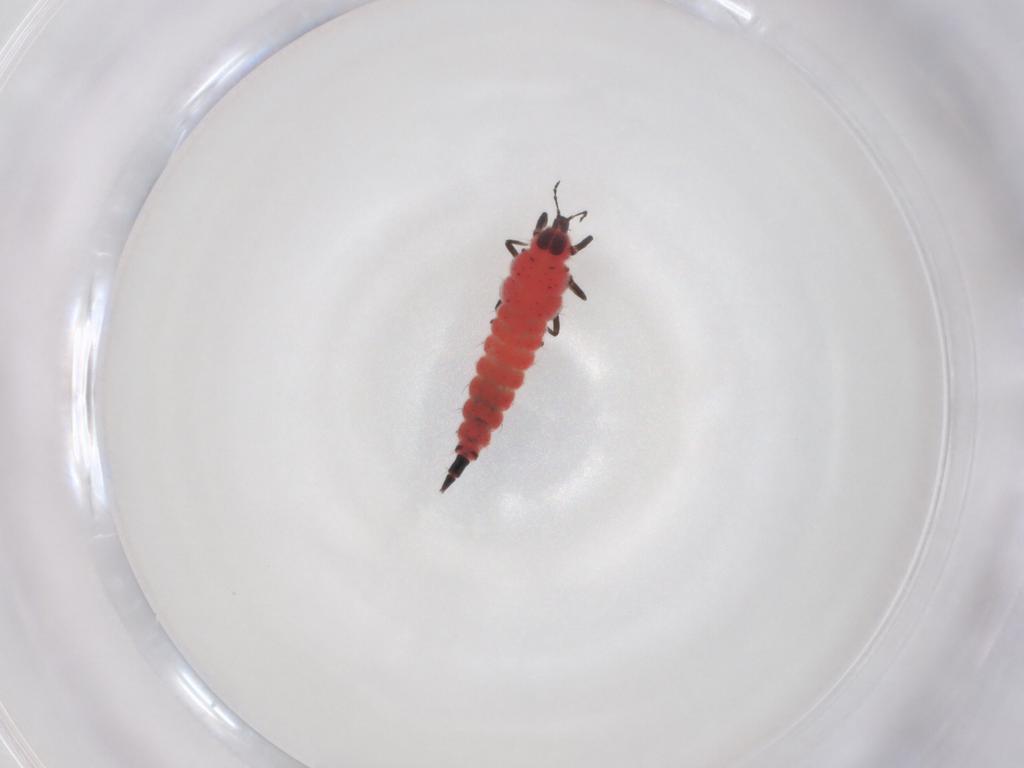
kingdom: Animalia
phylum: Arthropoda
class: Insecta
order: Thysanoptera
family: Phlaeothripidae
